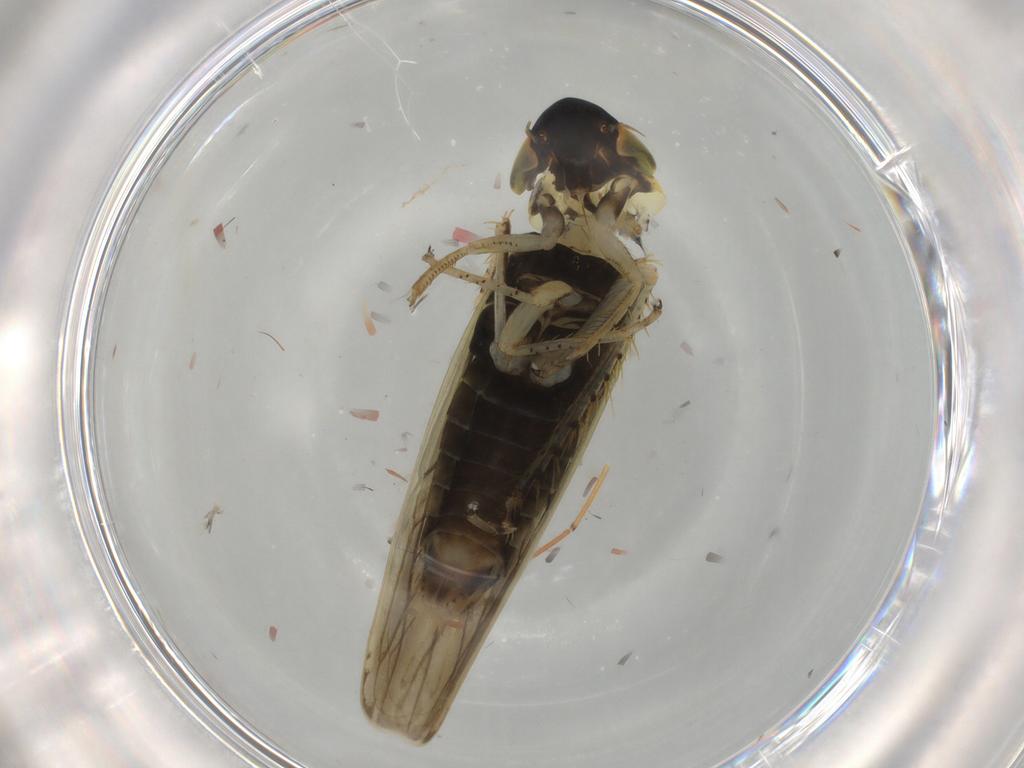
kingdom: Animalia
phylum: Arthropoda
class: Insecta
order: Hemiptera
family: Cicadellidae
